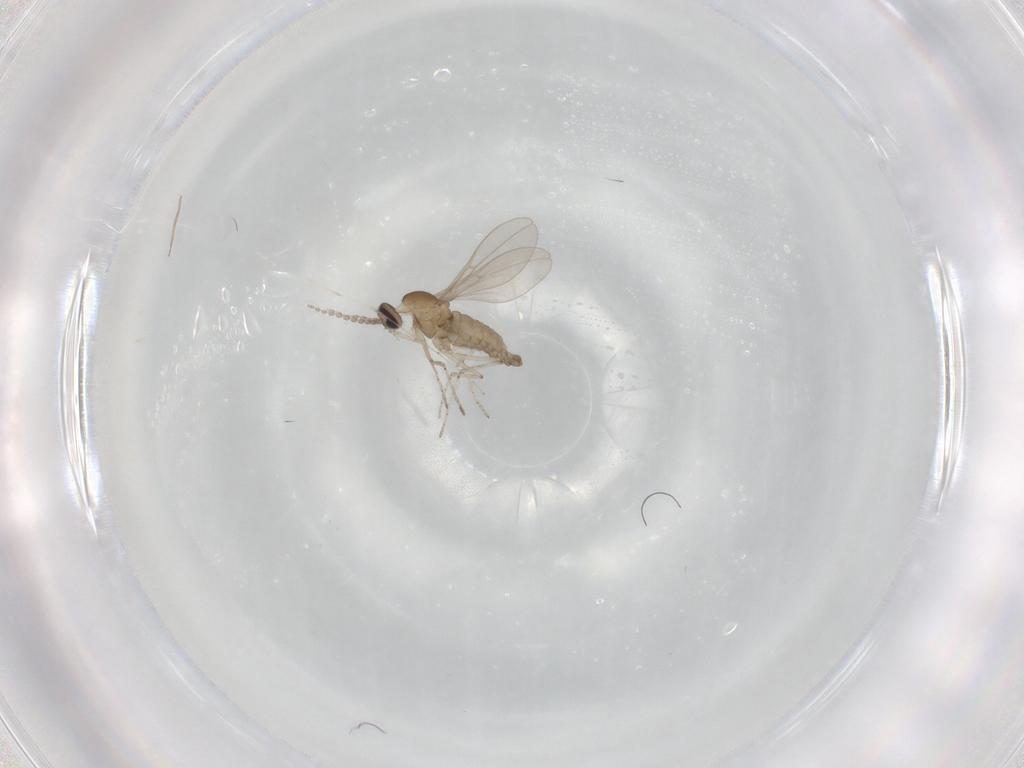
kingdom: Animalia
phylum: Arthropoda
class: Insecta
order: Diptera
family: Cecidomyiidae
